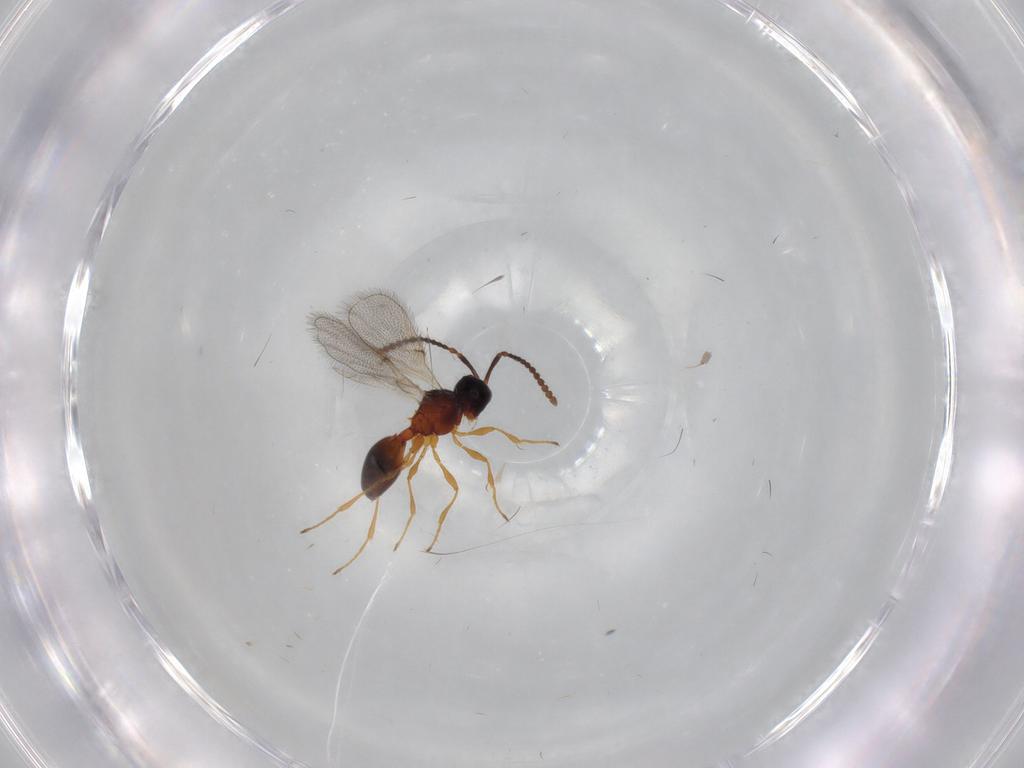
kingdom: Animalia
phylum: Arthropoda
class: Insecta
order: Hymenoptera
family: Diapriidae
